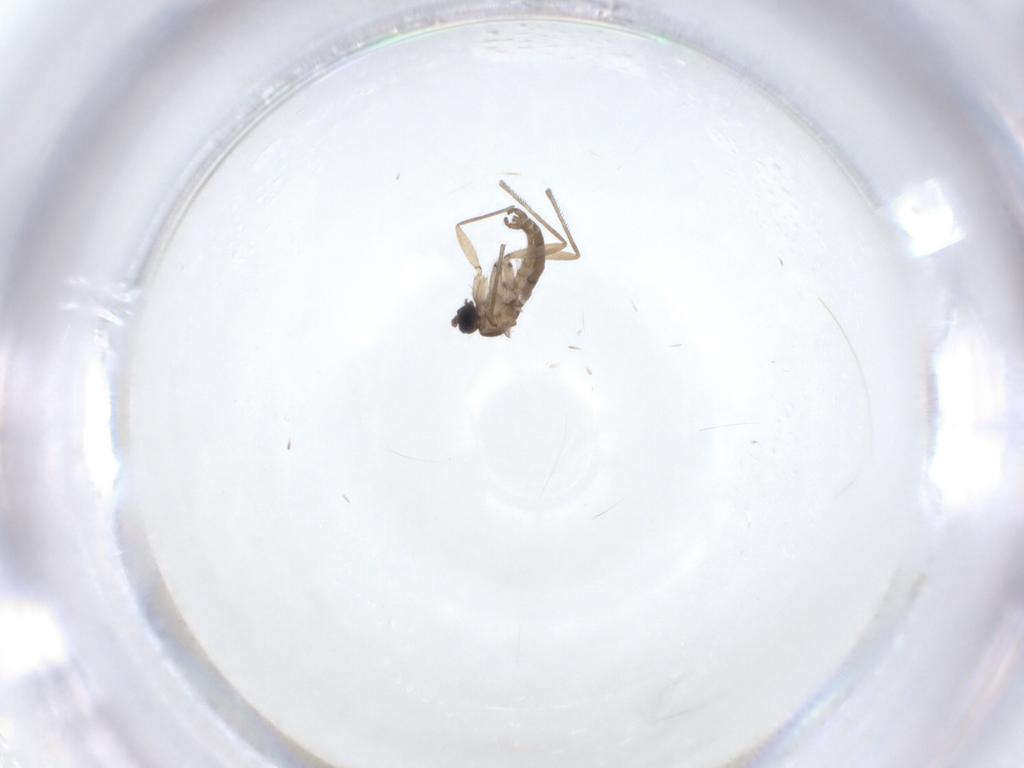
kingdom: Animalia
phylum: Arthropoda
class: Insecta
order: Diptera
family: Sciaridae
